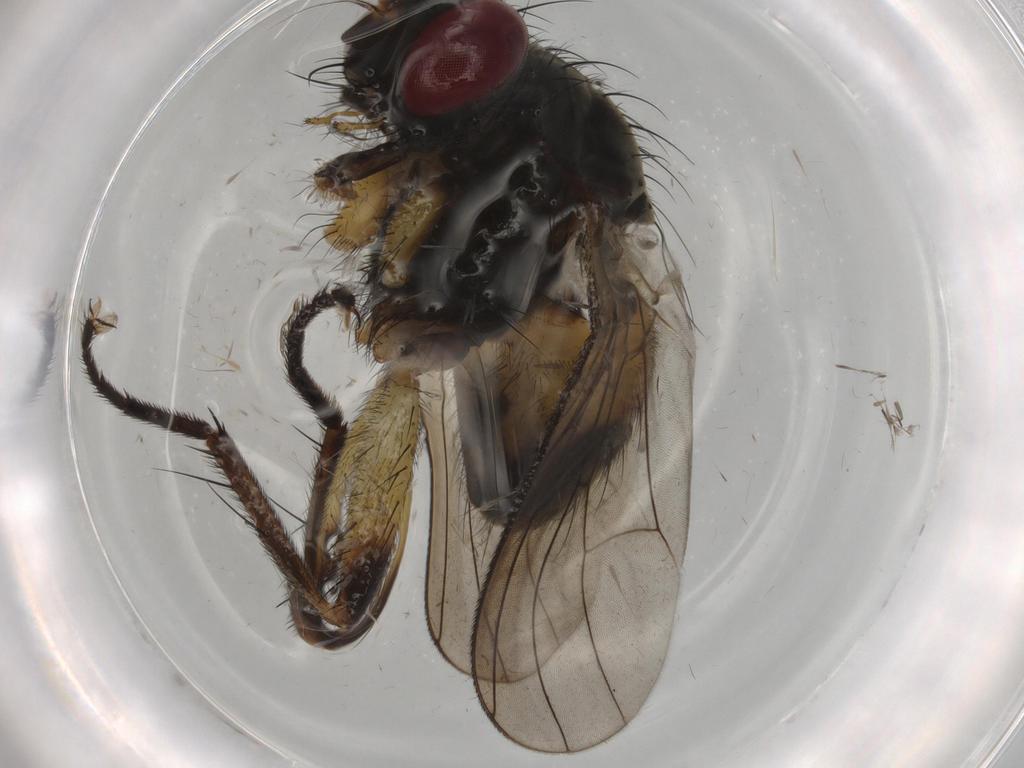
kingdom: Animalia
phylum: Arthropoda
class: Insecta
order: Diptera
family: Muscidae
